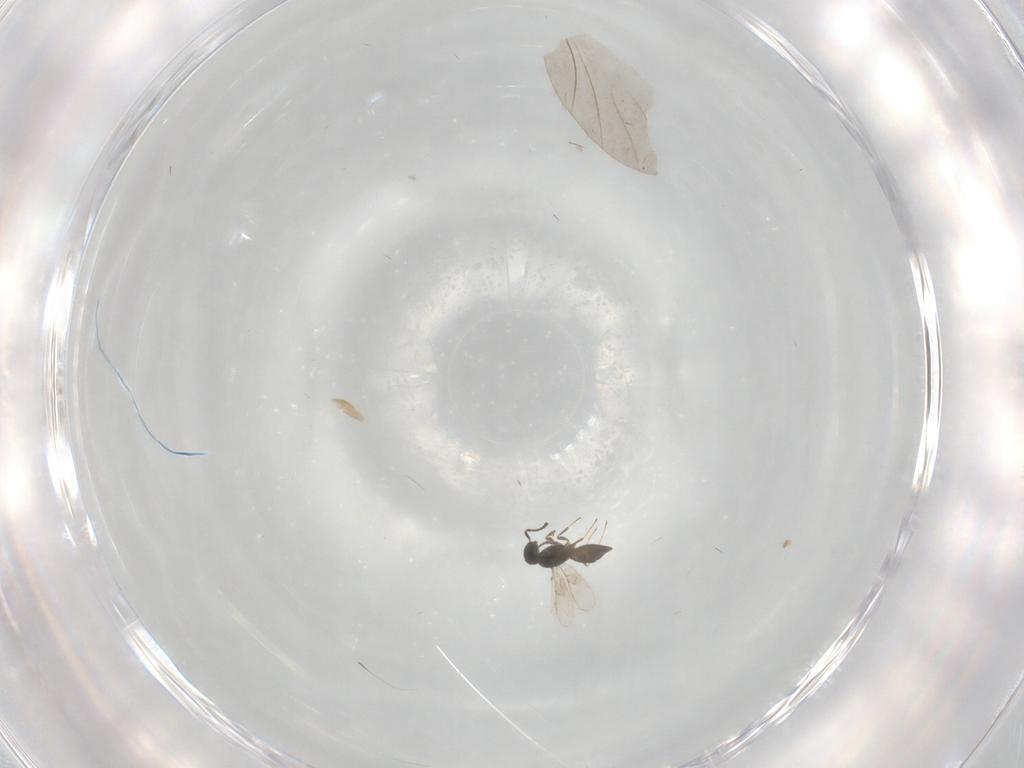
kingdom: Animalia
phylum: Arthropoda
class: Insecta
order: Hymenoptera
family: Scelionidae
